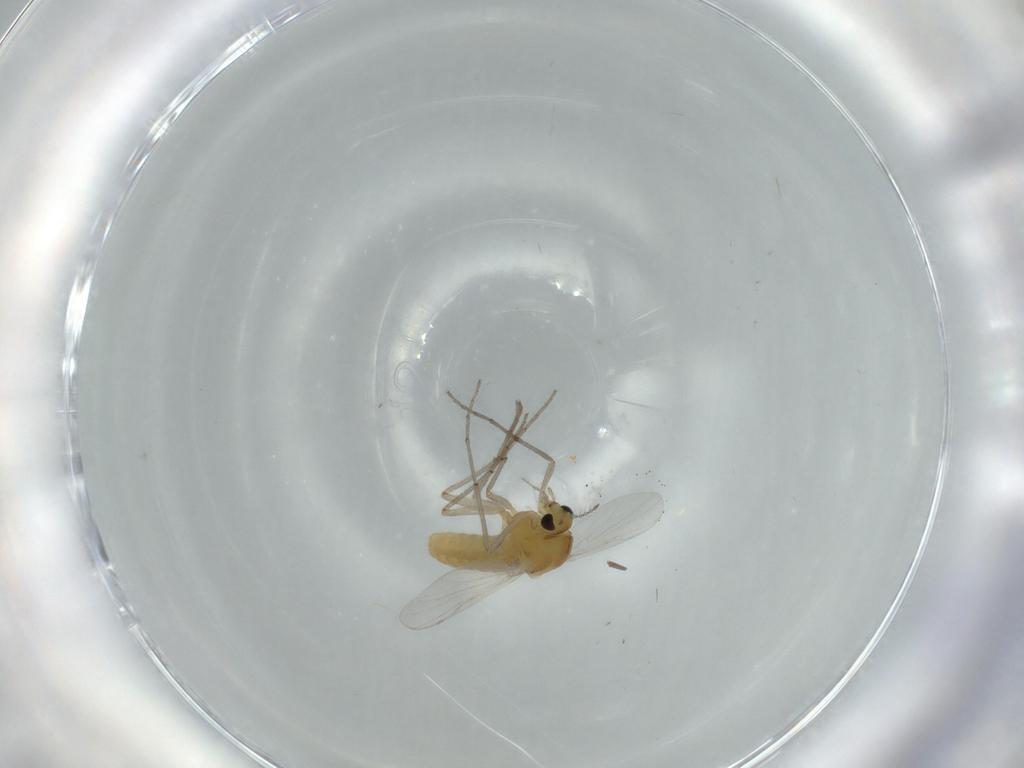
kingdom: Animalia
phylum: Arthropoda
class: Insecta
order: Diptera
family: Chironomidae
